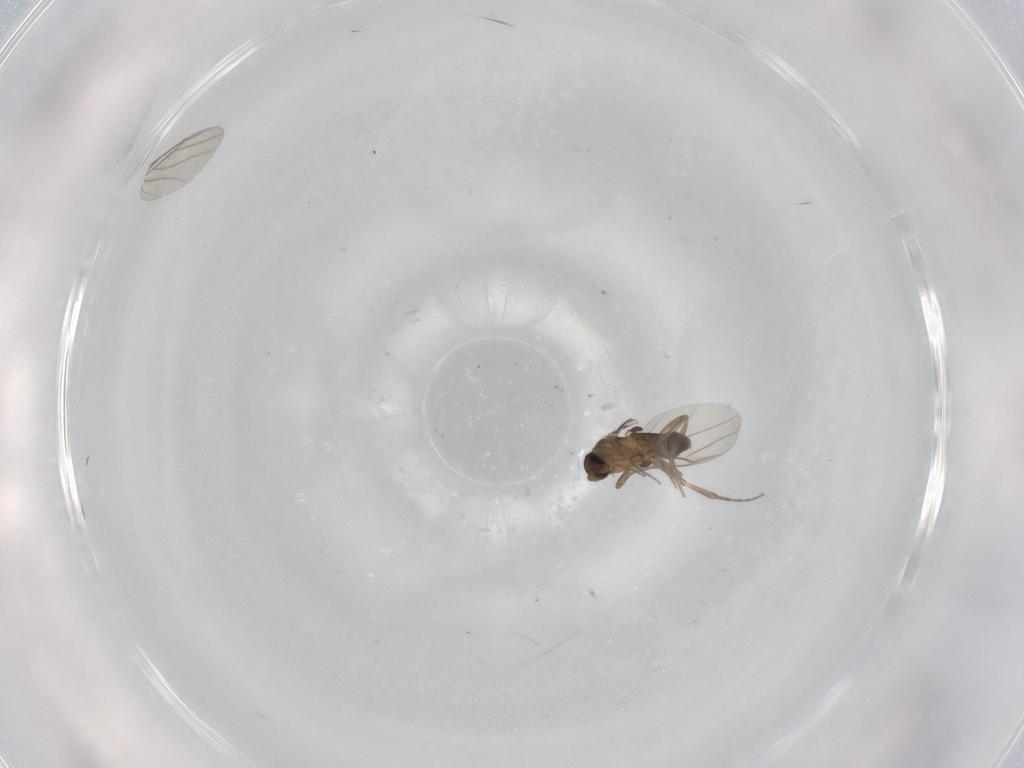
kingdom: Animalia
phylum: Arthropoda
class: Insecta
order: Diptera
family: Phoridae
